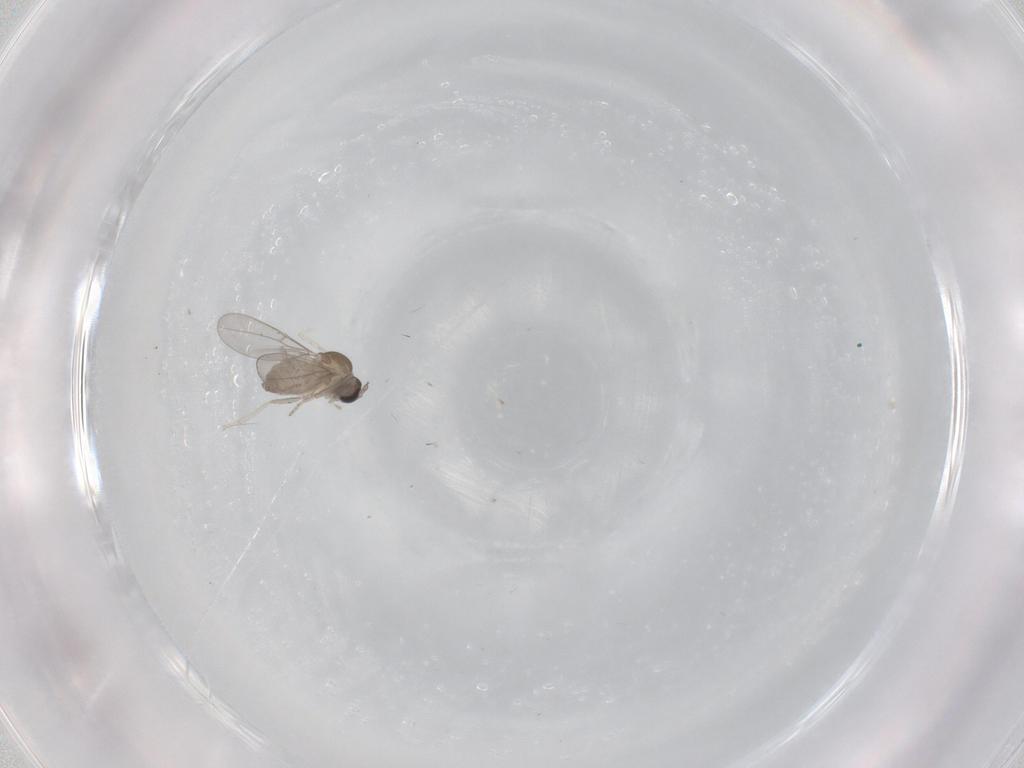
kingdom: Animalia
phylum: Arthropoda
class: Insecta
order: Diptera
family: Cecidomyiidae
